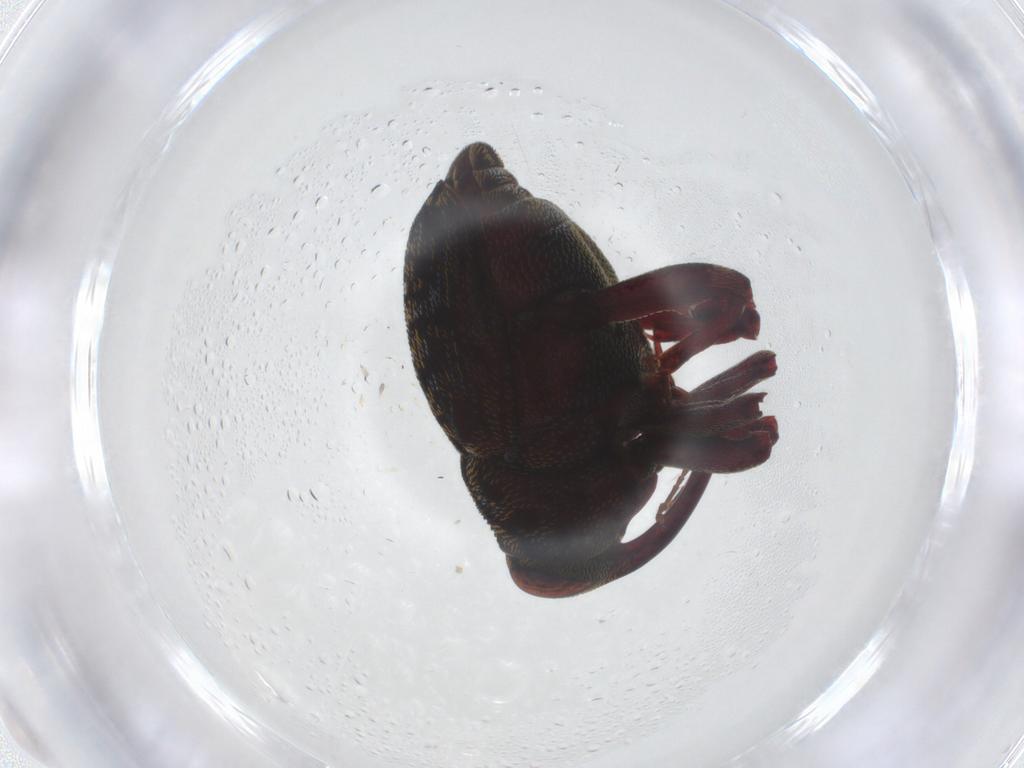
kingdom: Animalia
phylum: Arthropoda
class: Insecta
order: Coleoptera
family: Curculionidae
